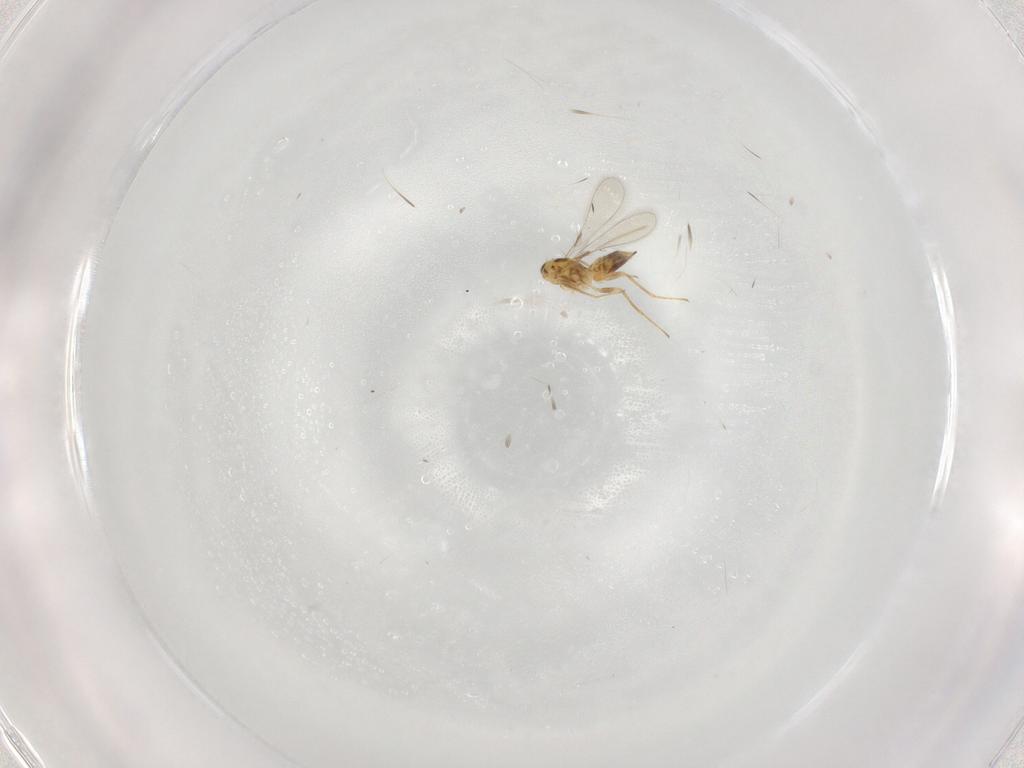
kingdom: Animalia
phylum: Arthropoda
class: Insecta
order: Hymenoptera
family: Mymaridae
